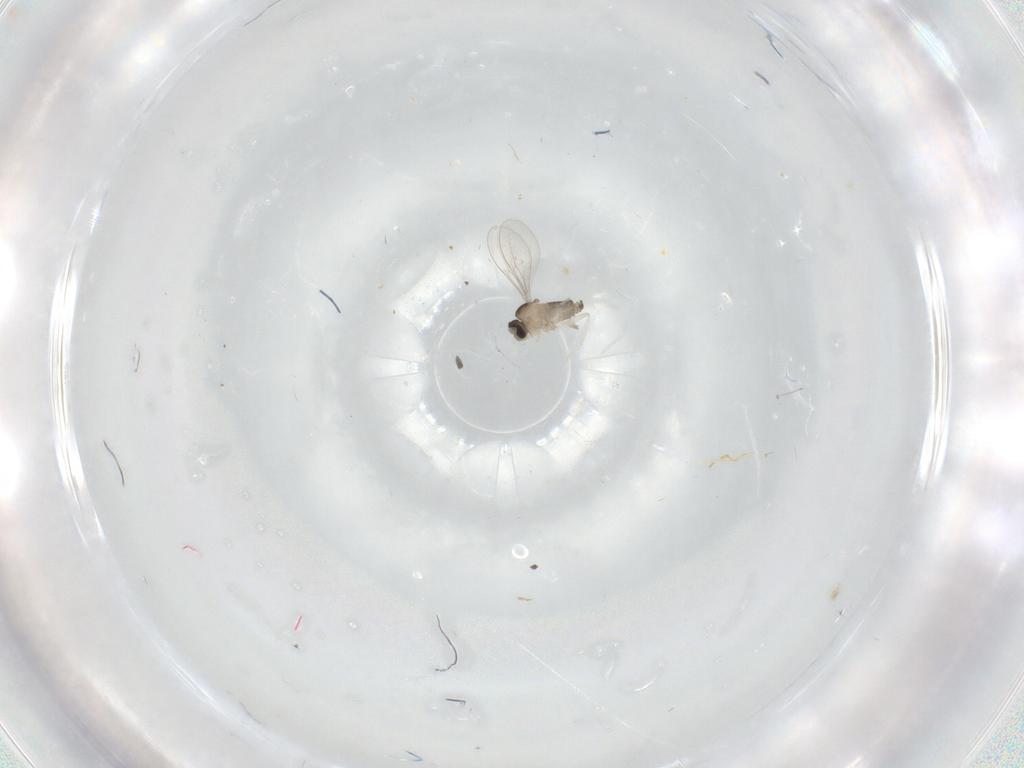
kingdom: Animalia
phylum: Arthropoda
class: Insecta
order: Diptera
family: Cecidomyiidae
